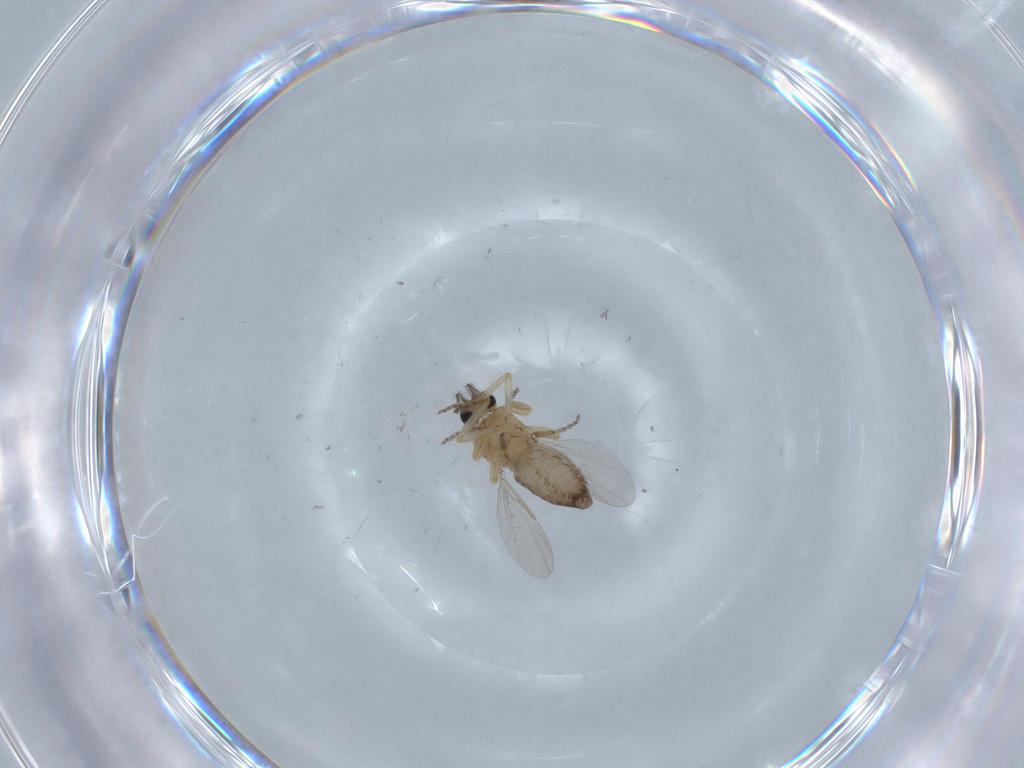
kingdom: Animalia
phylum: Arthropoda
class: Insecta
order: Diptera
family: Ceratopogonidae
